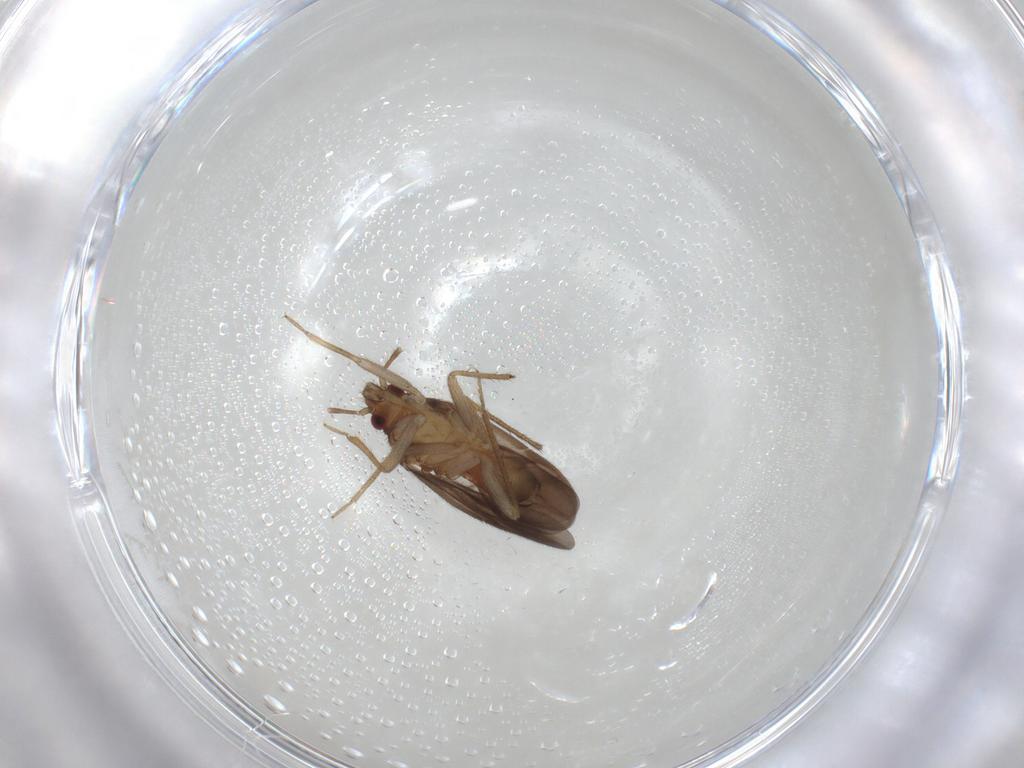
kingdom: Animalia
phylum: Arthropoda
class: Insecta
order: Hemiptera
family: Ceratocombidae
